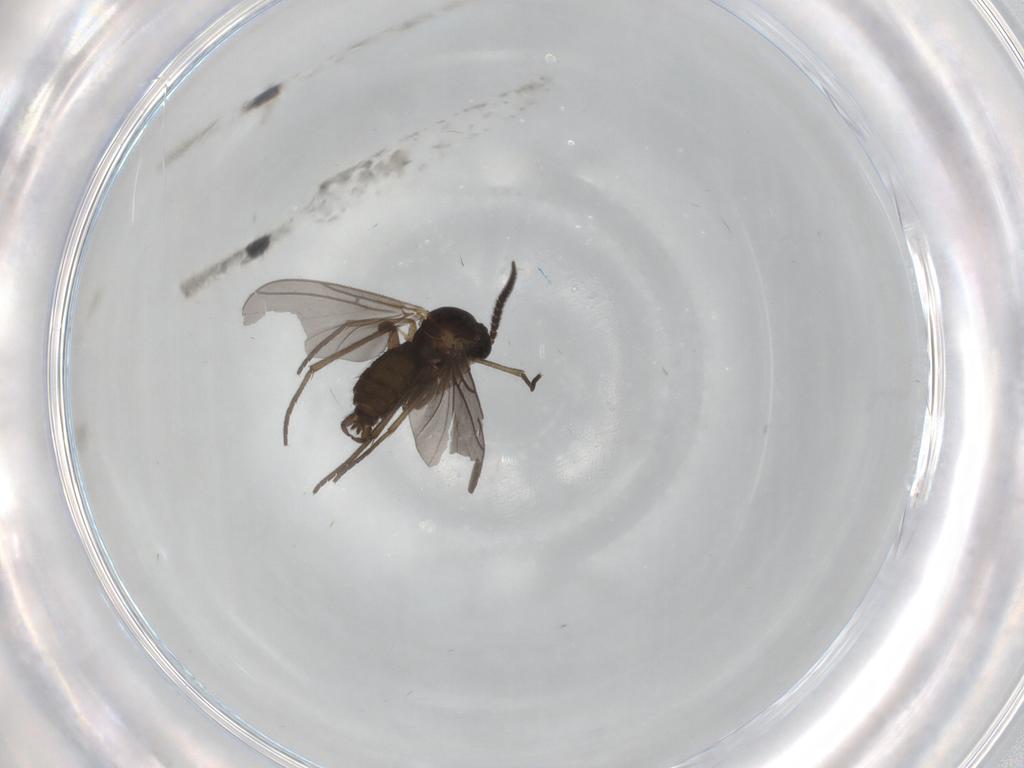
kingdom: Animalia
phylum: Arthropoda
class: Insecta
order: Diptera
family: Sciaridae
